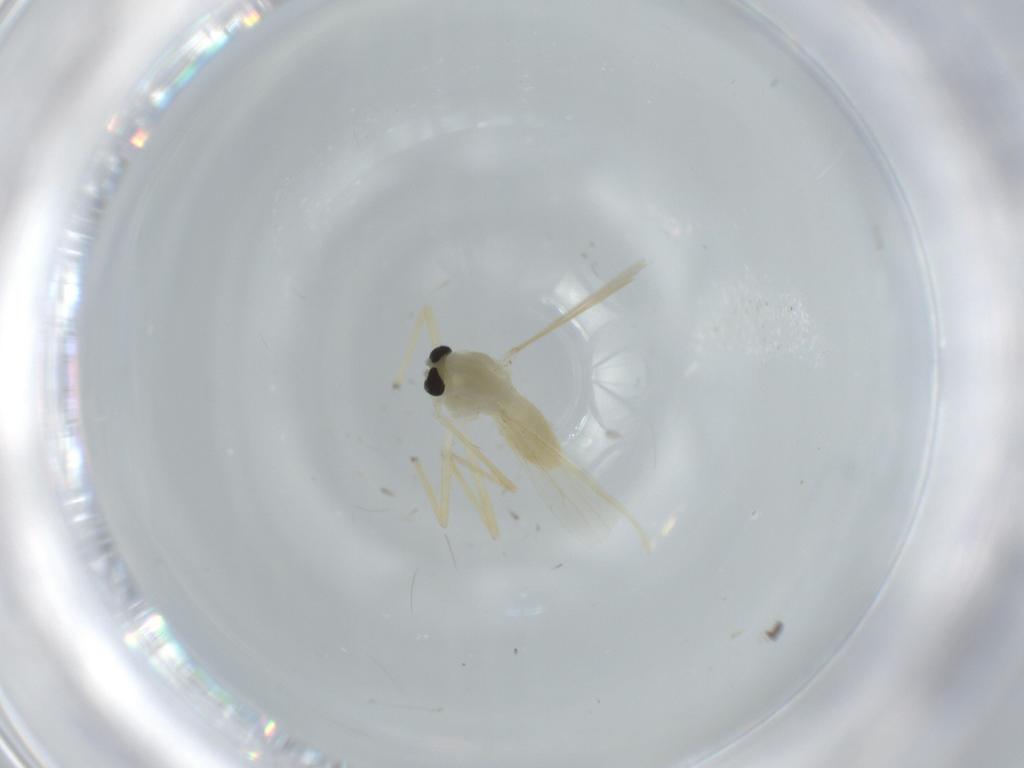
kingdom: Animalia
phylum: Arthropoda
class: Insecta
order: Diptera
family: Chironomidae
